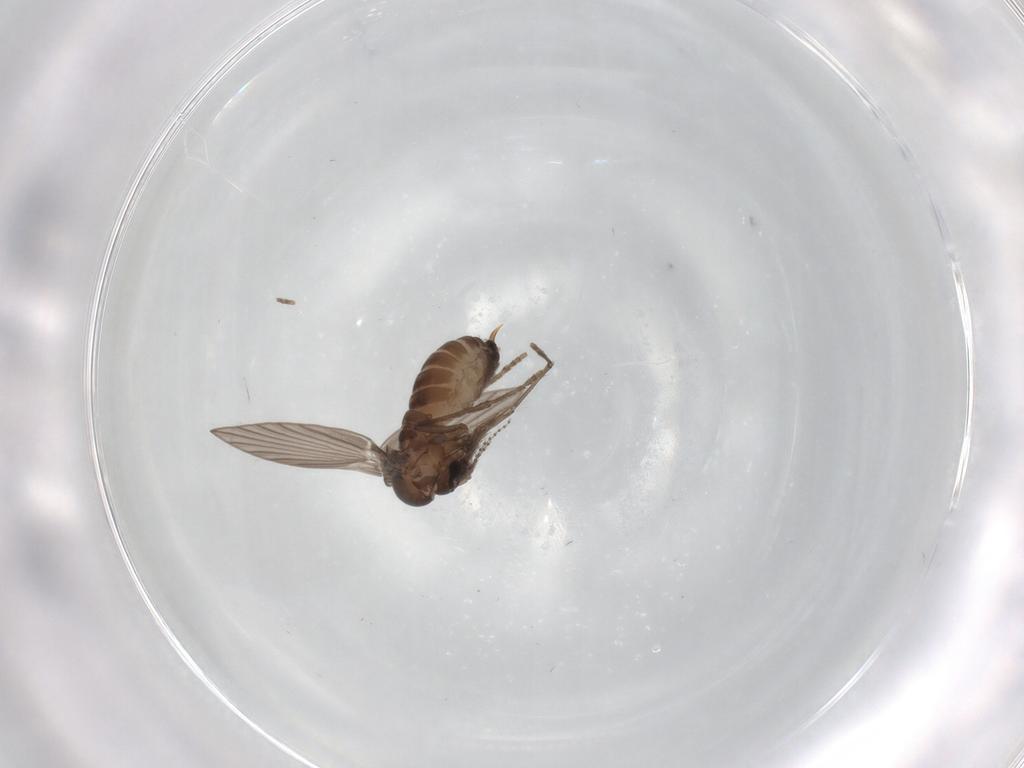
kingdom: Animalia
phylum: Arthropoda
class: Insecta
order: Diptera
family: Psychodidae
